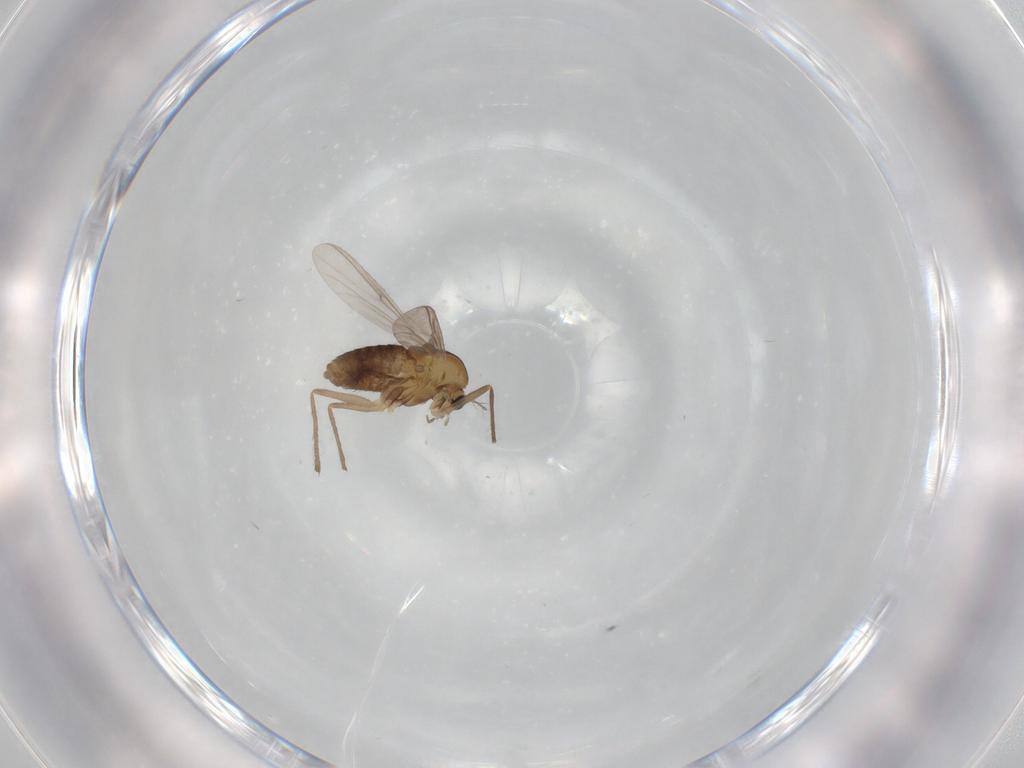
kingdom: Animalia
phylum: Arthropoda
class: Insecta
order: Diptera
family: Chironomidae
